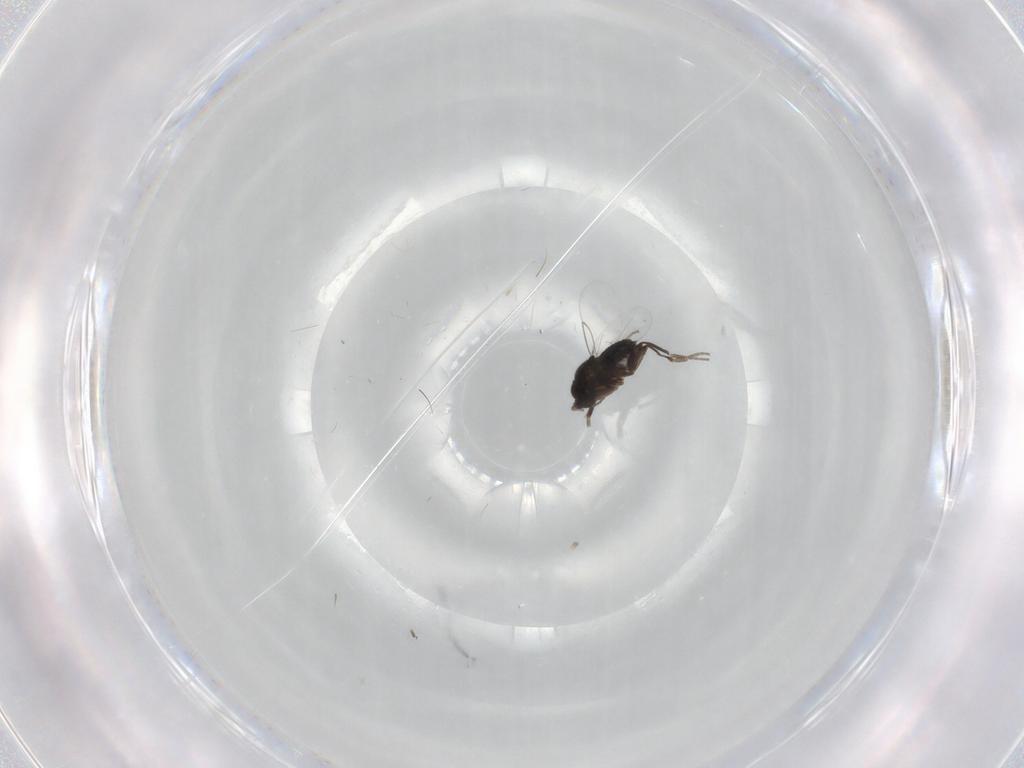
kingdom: Animalia
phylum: Arthropoda
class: Insecta
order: Diptera
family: Phoridae
